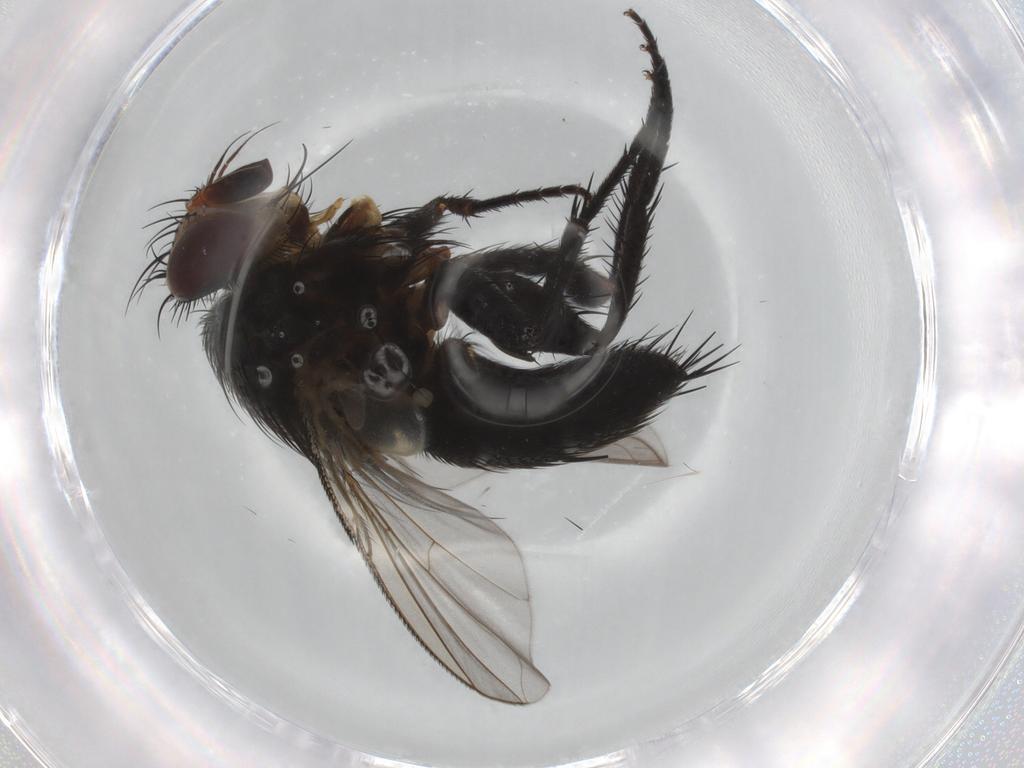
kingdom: Animalia
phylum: Arthropoda
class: Insecta
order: Diptera
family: Tachinidae
